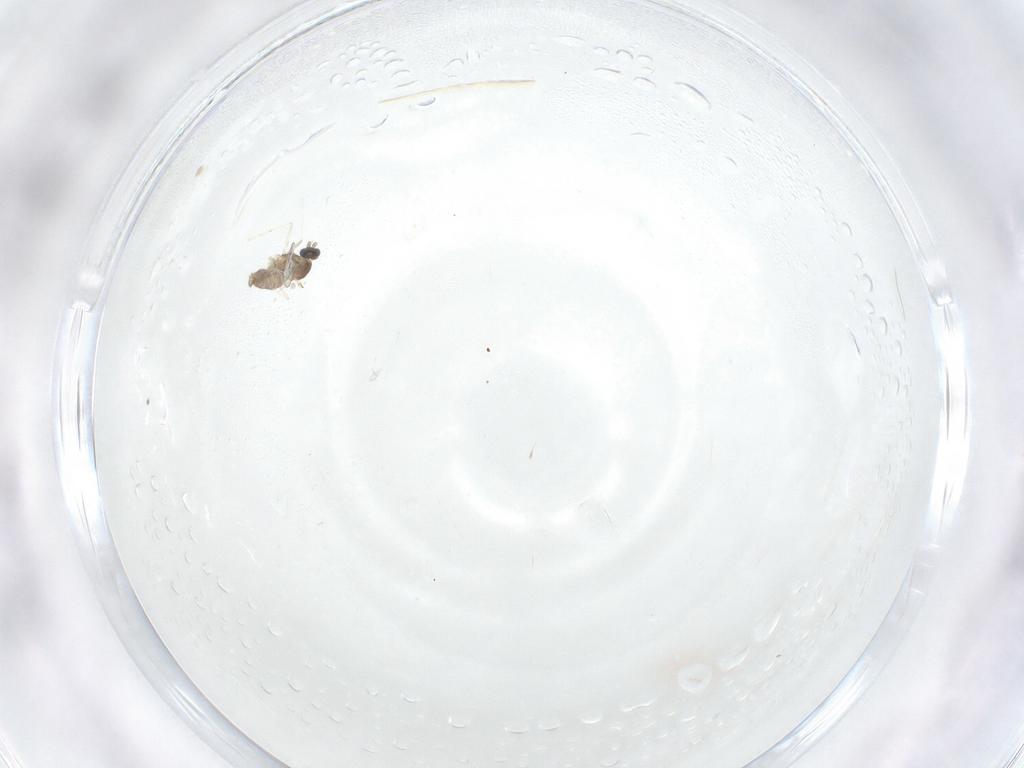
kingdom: Animalia
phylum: Arthropoda
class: Insecta
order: Diptera
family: Cecidomyiidae
